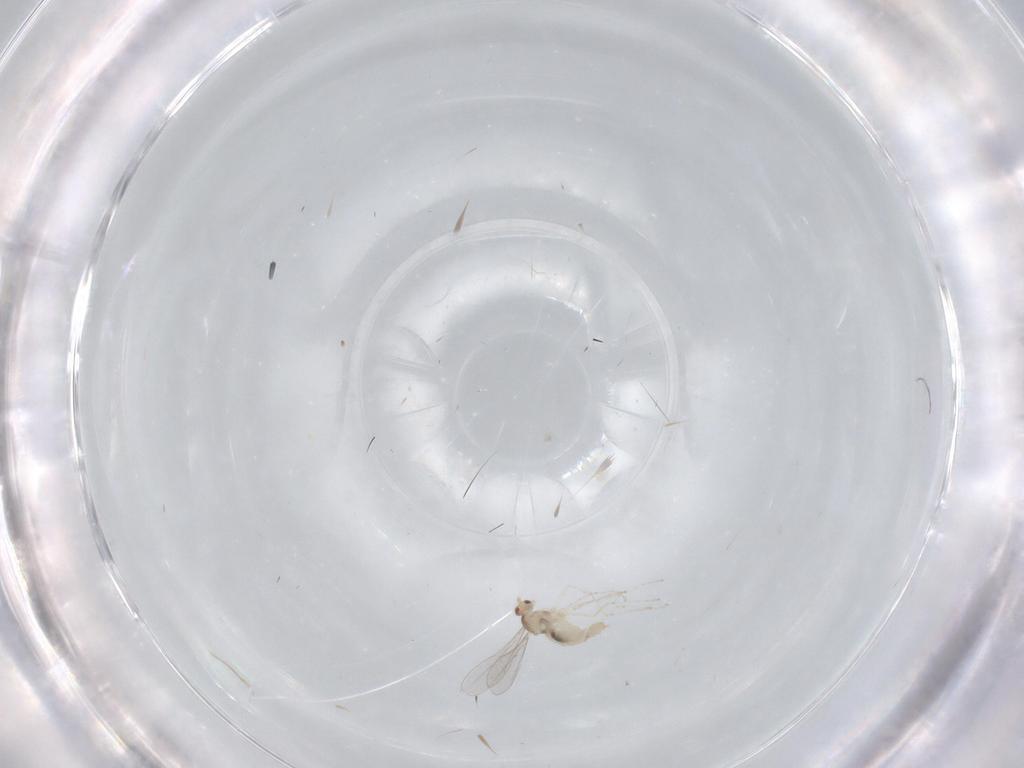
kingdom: Animalia
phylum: Arthropoda
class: Insecta
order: Diptera
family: Cecidomyiidae
